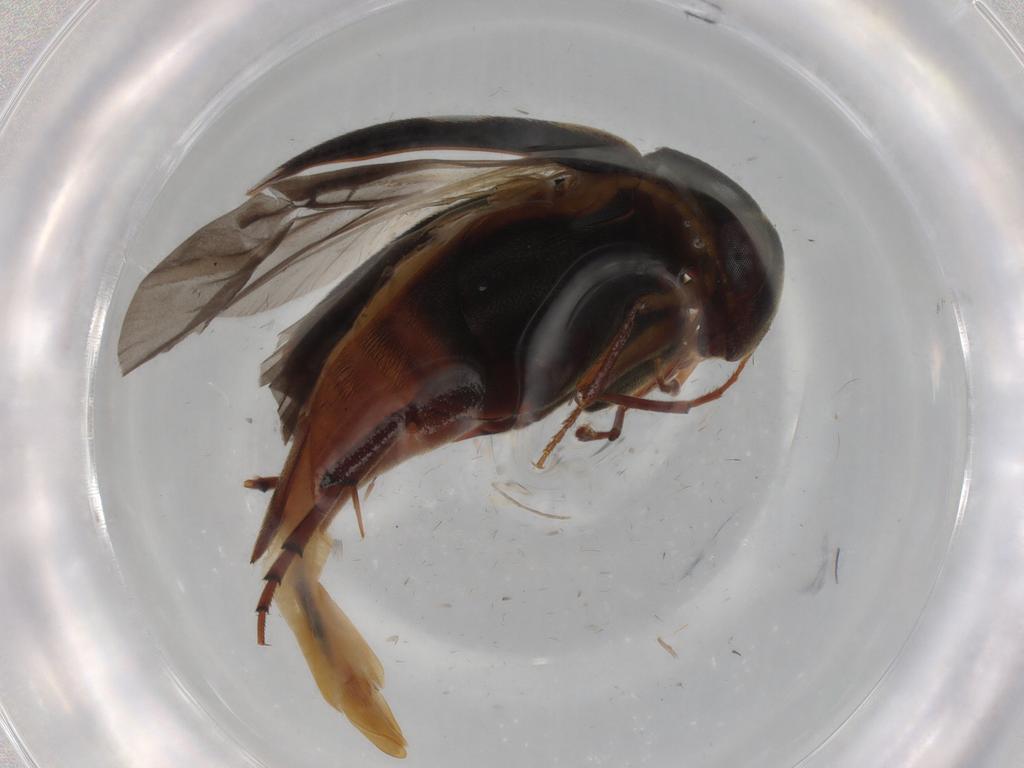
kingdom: Animalia
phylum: Arthropoda
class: Insecta
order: Coleoptera
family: Mordellidae
